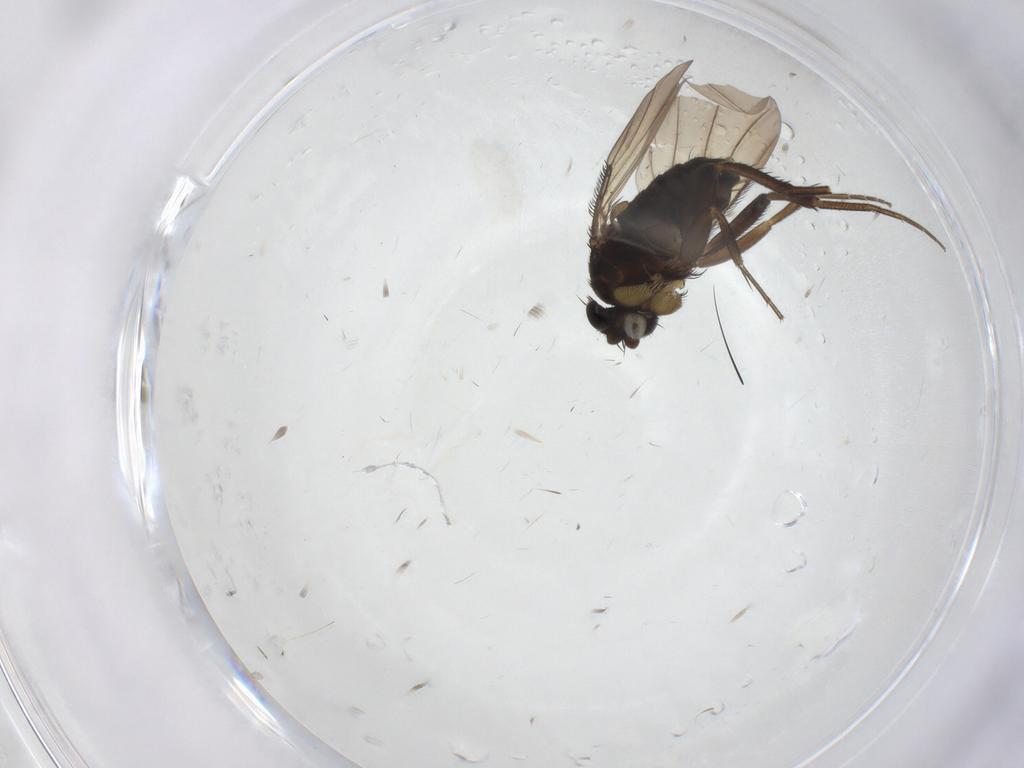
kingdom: Animalia
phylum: Arthropoda
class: Insecta
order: Diptera
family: Phoridae
